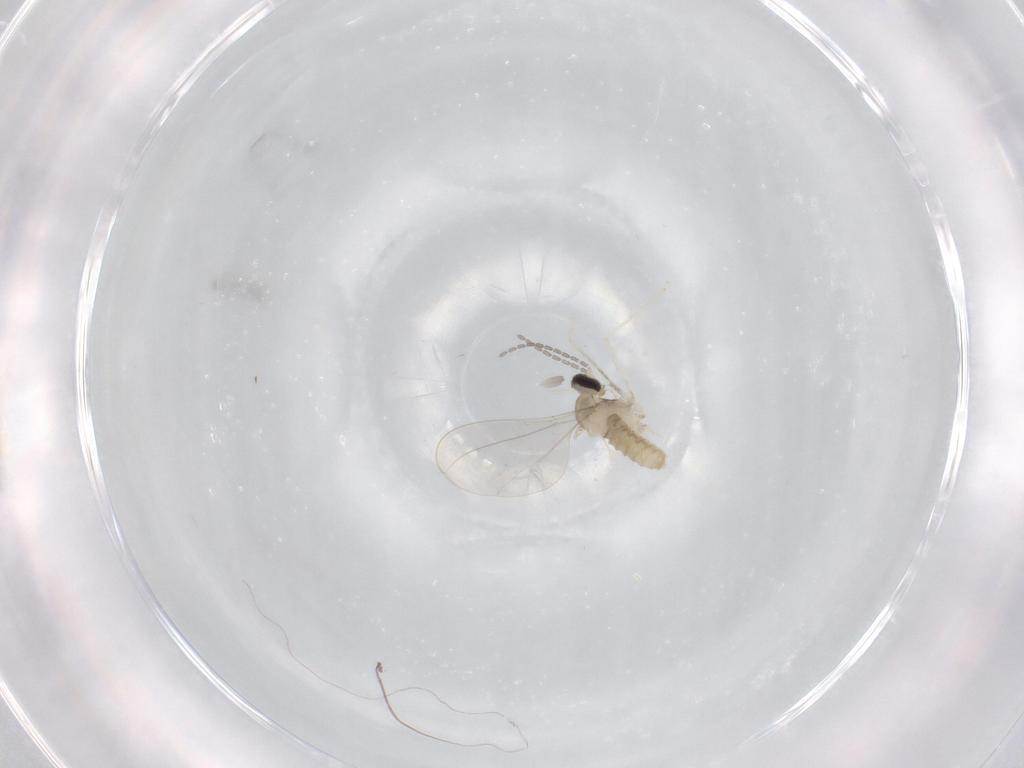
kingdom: Animalia
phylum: Arthropoda
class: Insecta
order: Diptera
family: Cecidomyiidae
